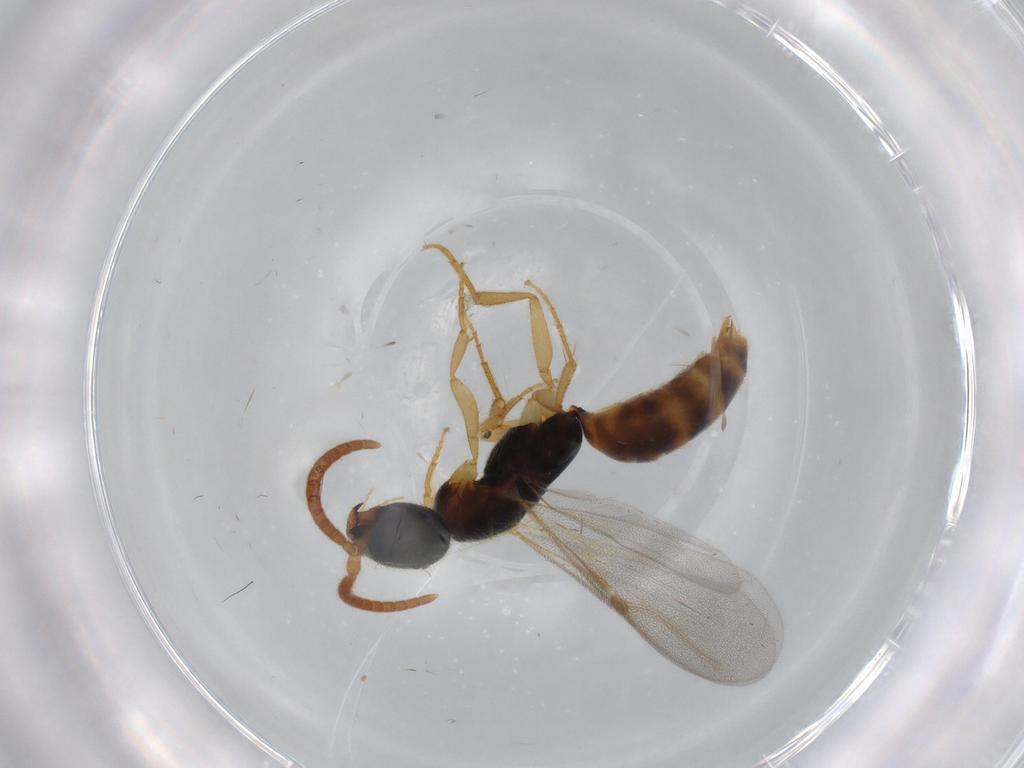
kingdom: Animalia
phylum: Arthropoda
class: Insecta
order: Hymenoptera
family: Bethylidae
